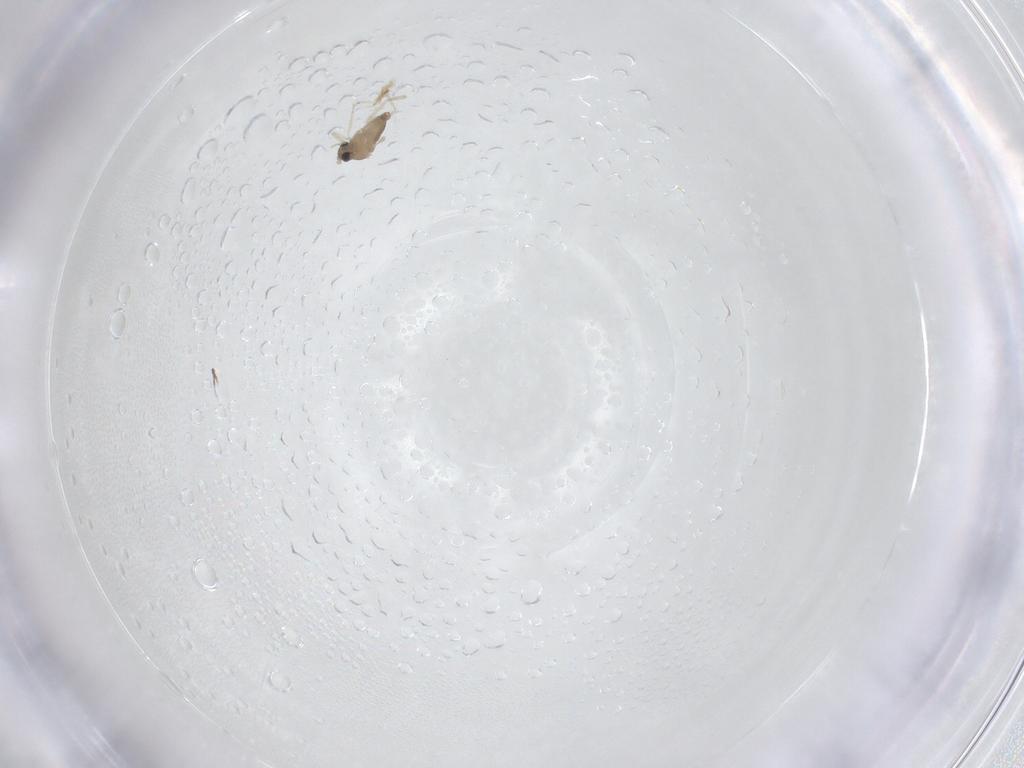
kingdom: Animalia
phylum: Arthropoda
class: Insecta
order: Diptera
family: Cecidomyiidae
